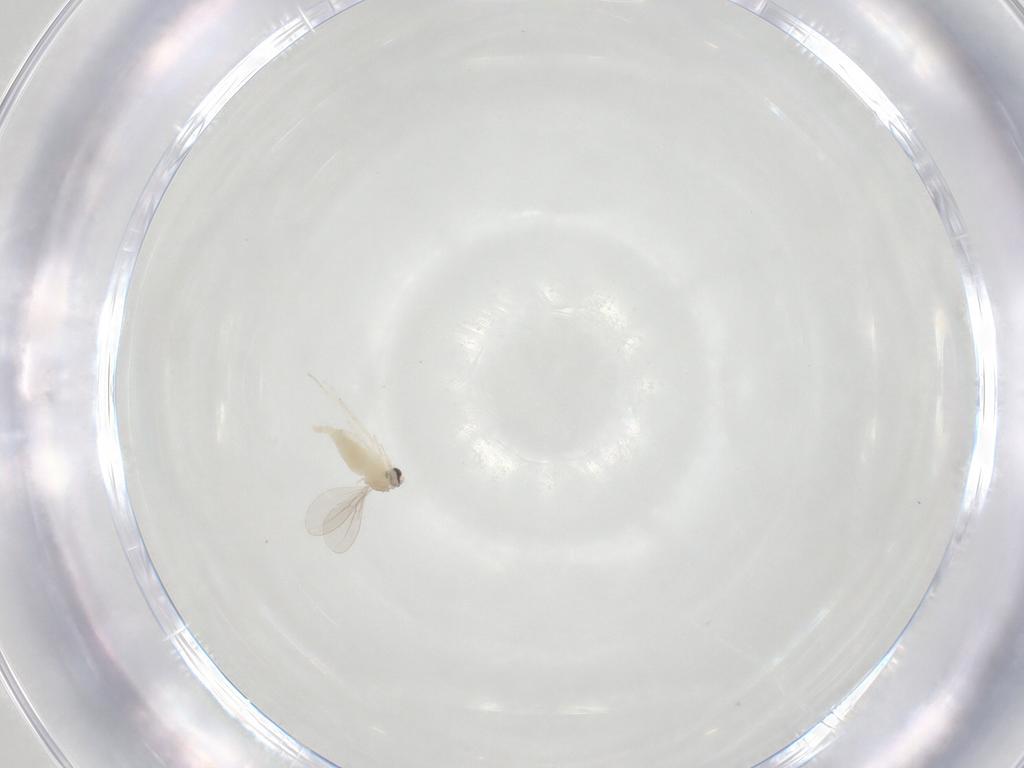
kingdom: Animalia
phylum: Arthropoda
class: Insecta
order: Diptera
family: Cecidomyiidae
